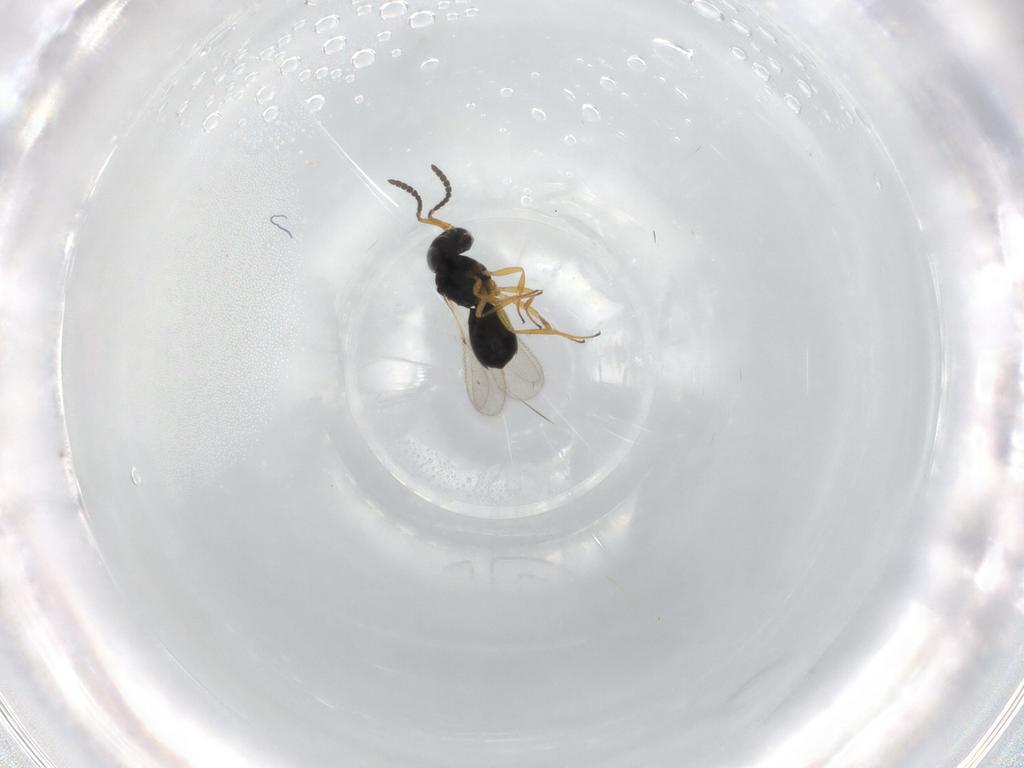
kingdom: Animalia
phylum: Arthropoda
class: Insecta
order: Hymenoptera
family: Scelionidae
